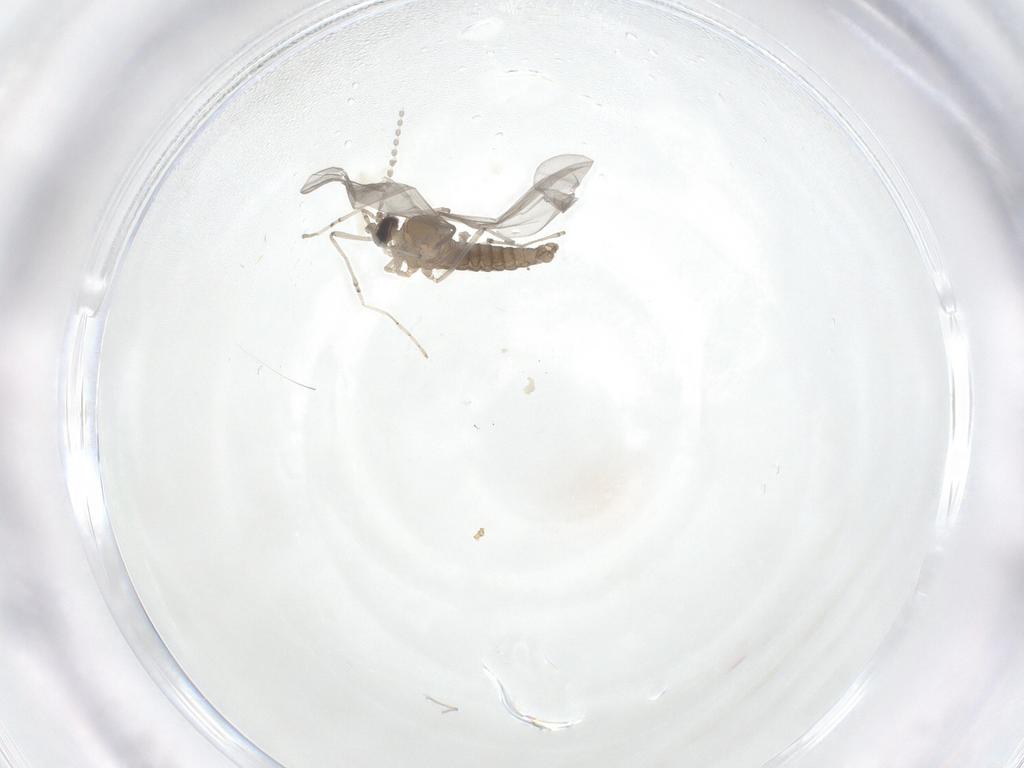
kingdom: Animalia
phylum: Arthropoda
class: Insecta
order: Diptera
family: Cecidomyiidae
